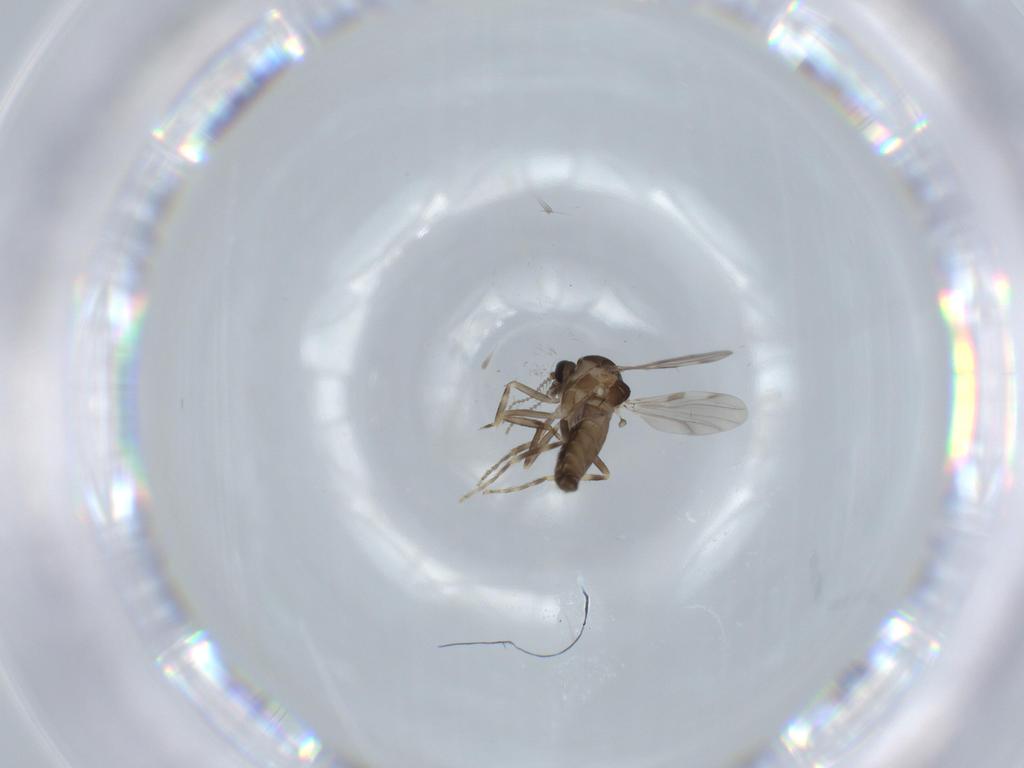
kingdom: Animalia
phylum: Arthropoda
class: Insecta
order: Diptera
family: Ceratopogonidae
